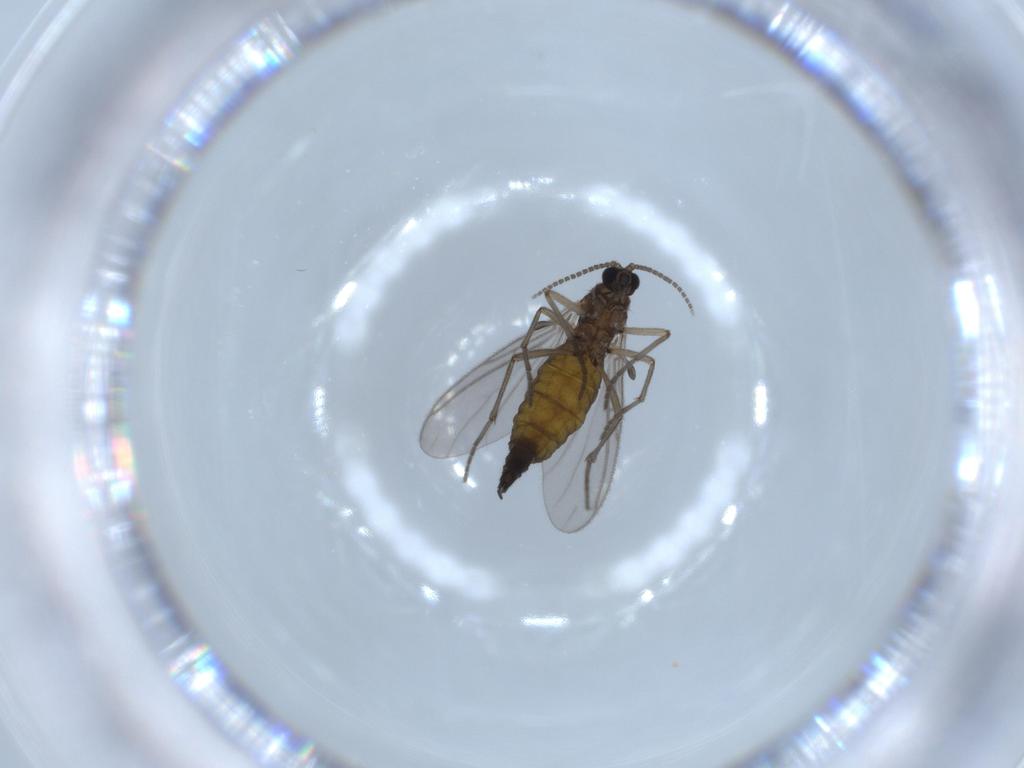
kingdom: Animalia
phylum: Arthropoda
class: Insecta
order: Diptera
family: Sciaridae
